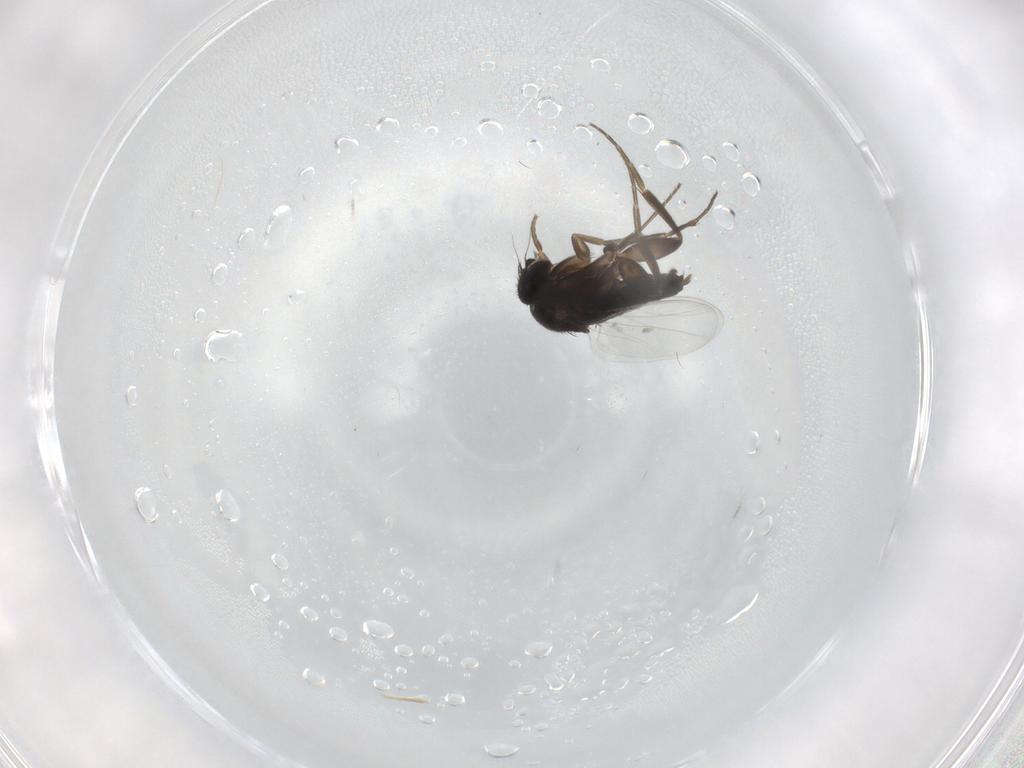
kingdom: Animalia
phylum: Arthropoda
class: Insecta
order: Diptera
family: Phoridae
